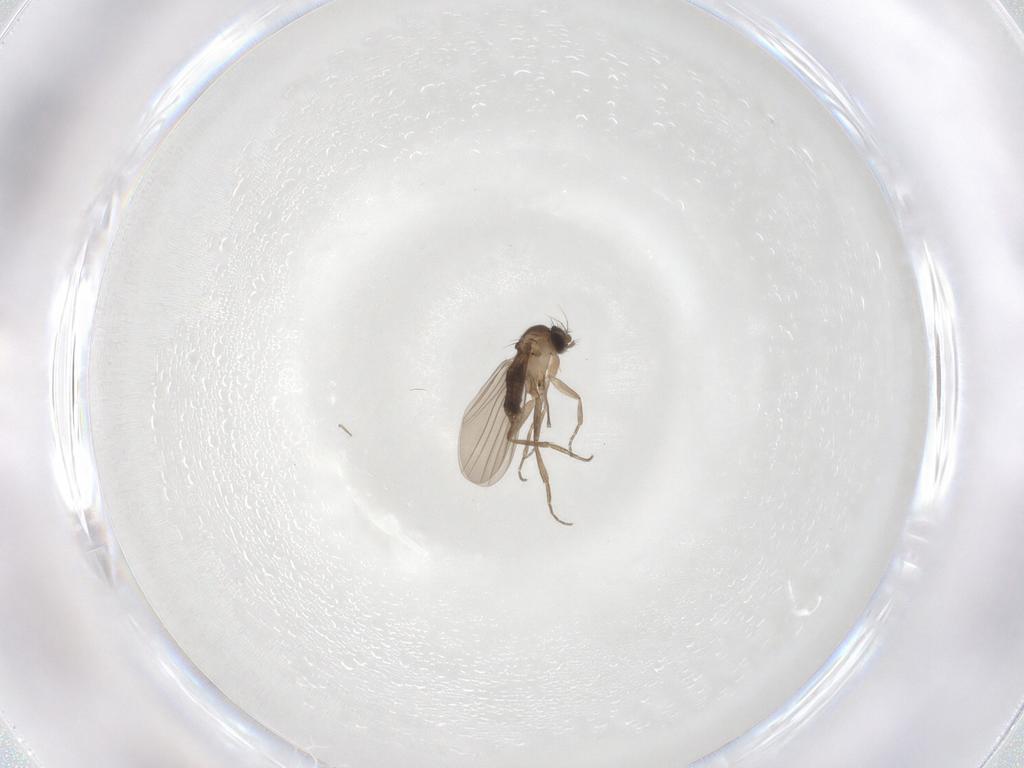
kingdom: Animalia
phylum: Arthropoda
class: Insecta
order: Diptera
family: Phoridae
